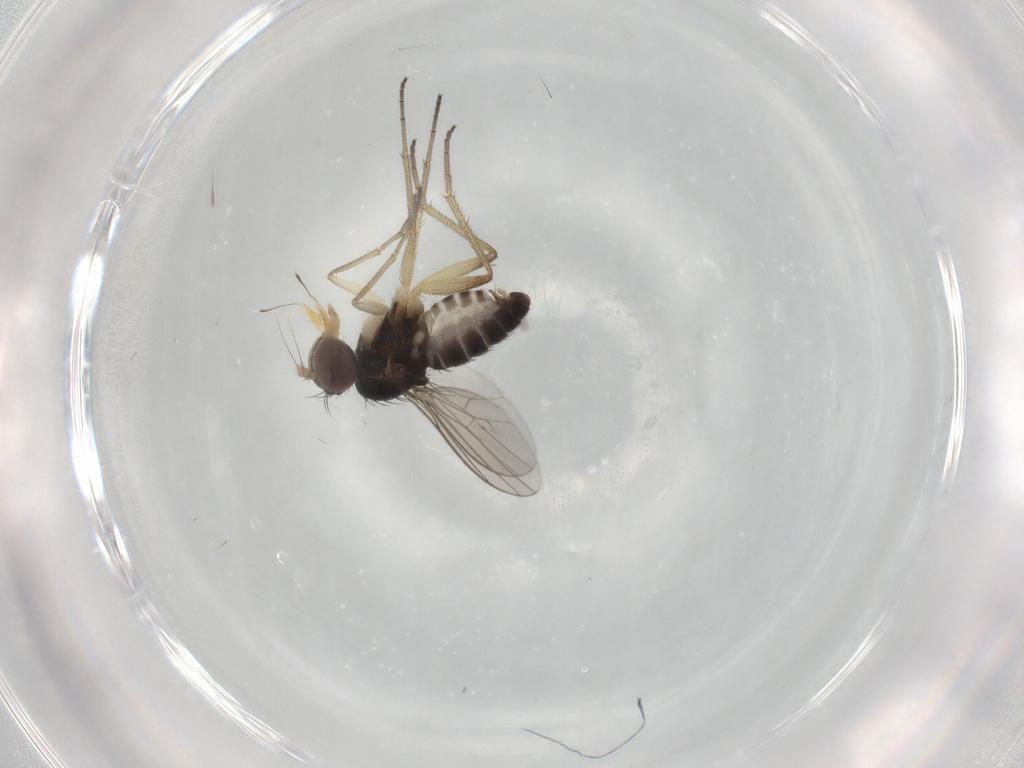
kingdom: Animalia
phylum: Arthropoda
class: Insecta
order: Diptera
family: Dolichopodidae
